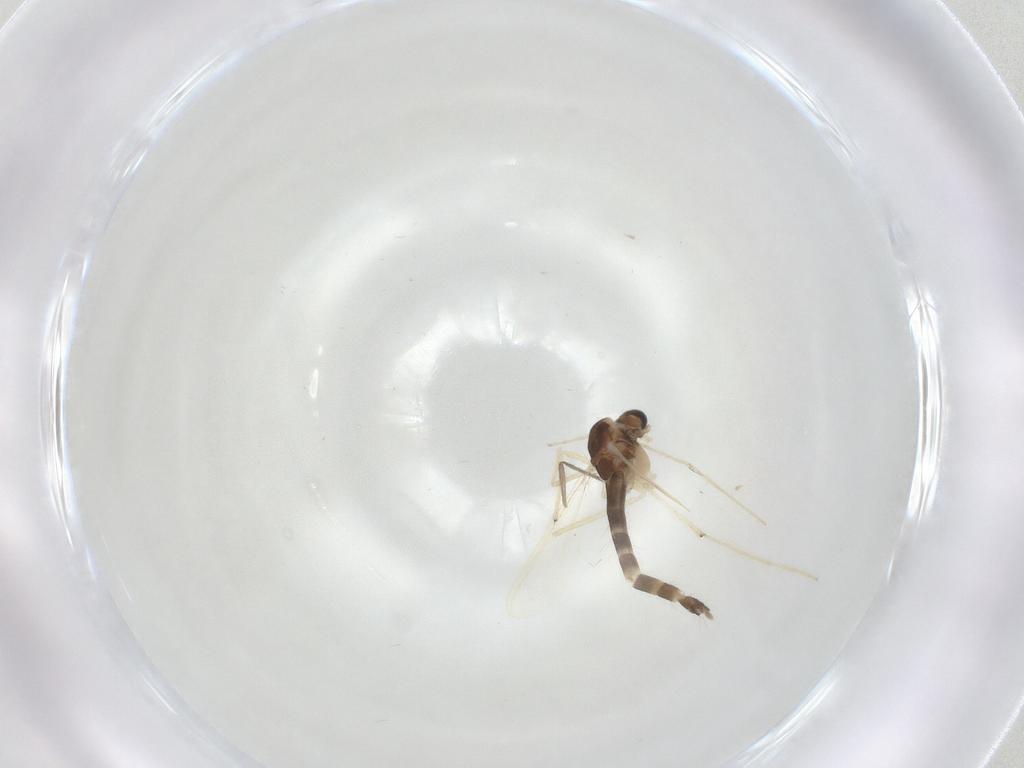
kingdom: Animalia
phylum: Arthropoda
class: Insecta
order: Diptera
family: Chironomidae
